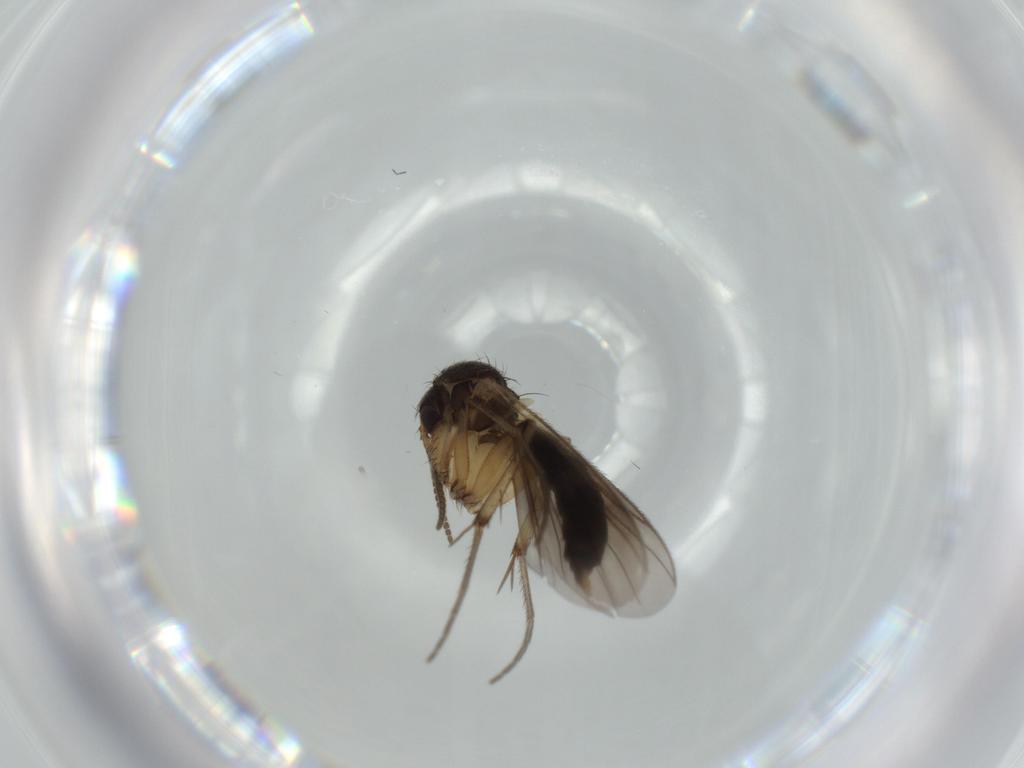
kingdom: Animalia
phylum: Arthropoda
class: Insecta
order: Diptera
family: Mycetophilidae
